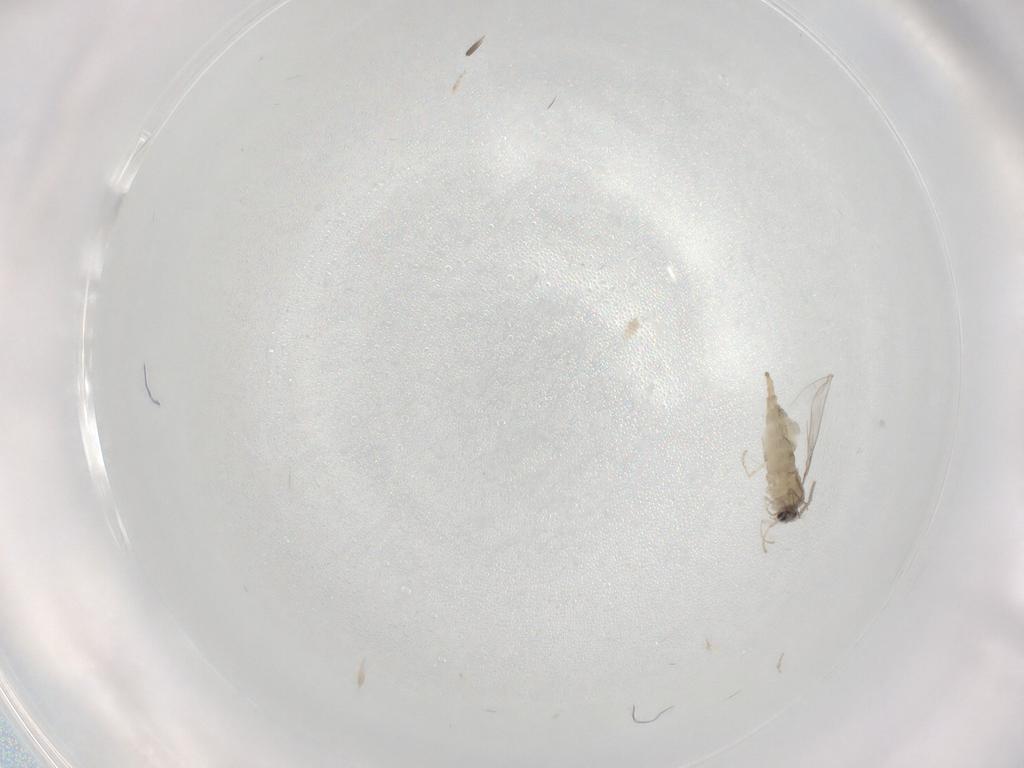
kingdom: Animalia
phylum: Arthropoda
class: Insecta
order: Diptera
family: Cecidomyiidae
